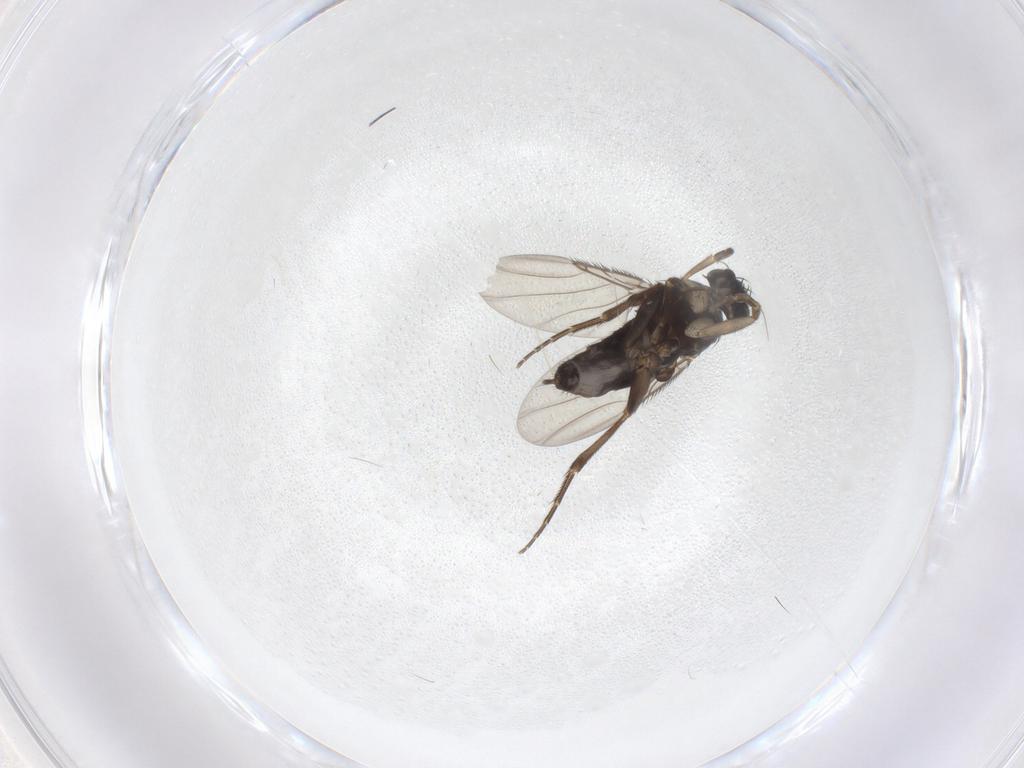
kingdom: Animalia
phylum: Arthropoda
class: Insecta
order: Diptera
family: Phoridae
